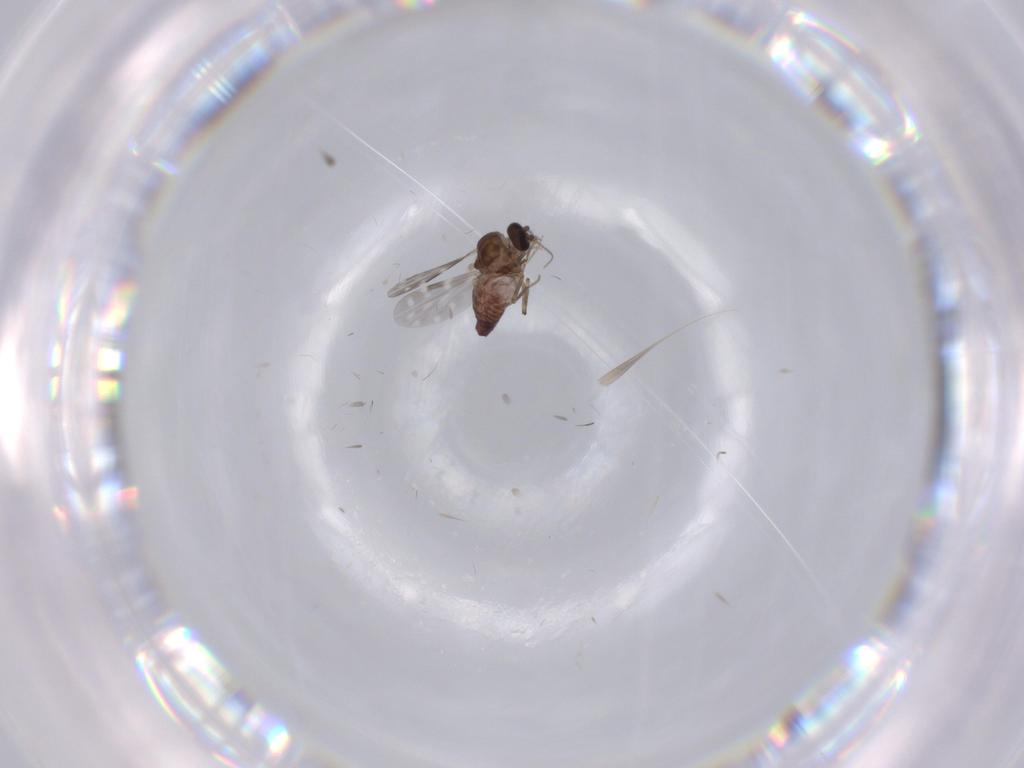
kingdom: Animalia
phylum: Arthropoda
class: Insecta
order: Diptera
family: Ceratopogonidae
